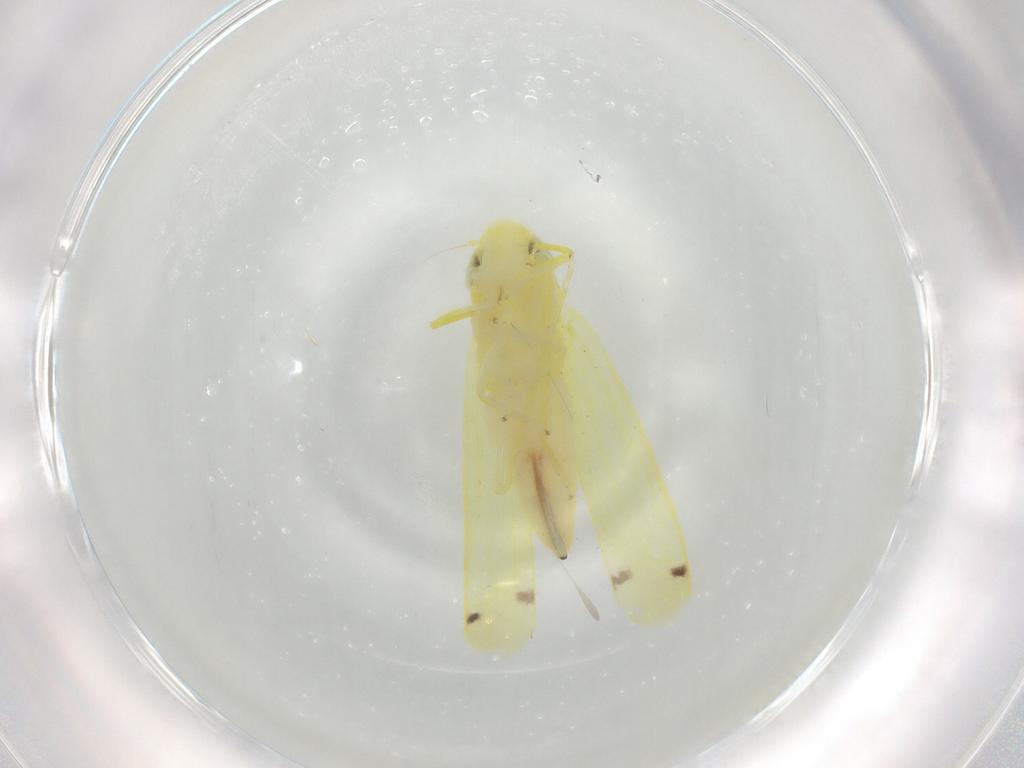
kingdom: Animalia
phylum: Arthropoda
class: Insecta
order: Hemiptera
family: Cicadellidae
